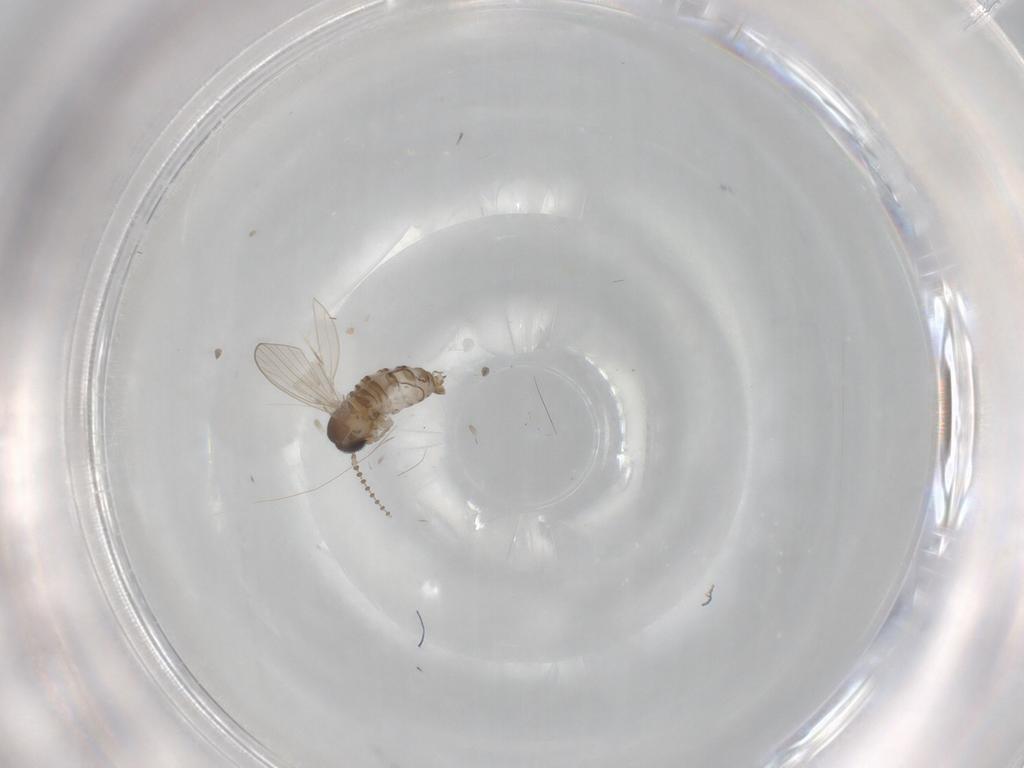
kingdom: Animalia
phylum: Arthropoda
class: Insecta
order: Diptera
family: Psychodidae
